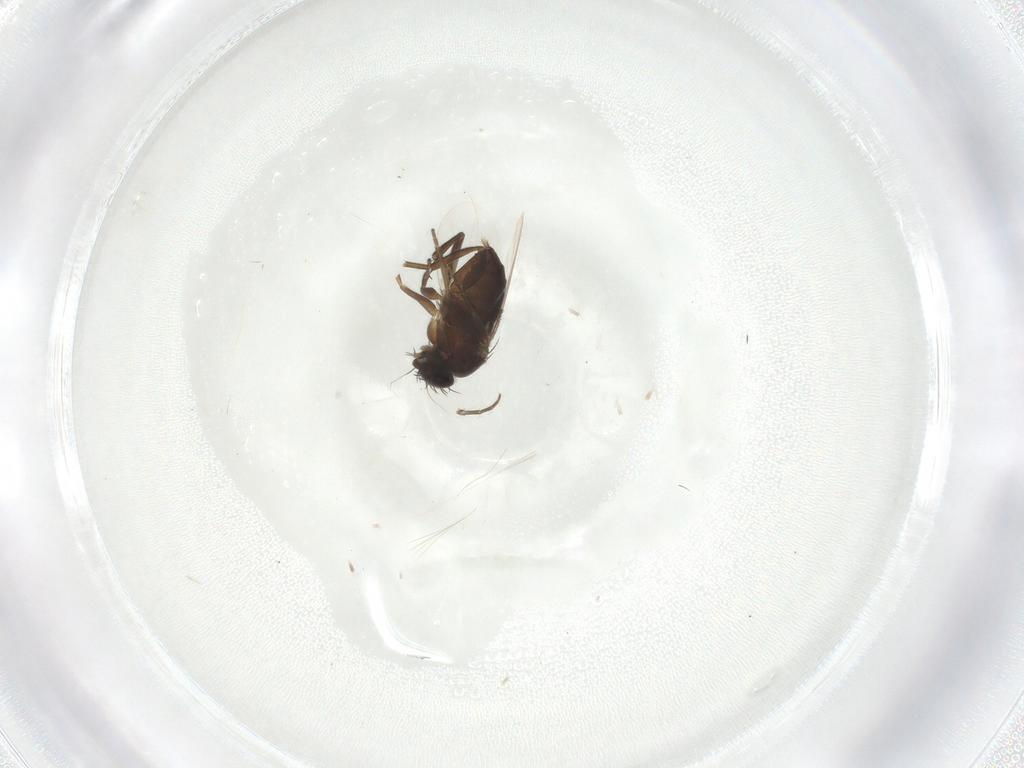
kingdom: Animalia
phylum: Arthropoda
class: Insecta
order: Diptera
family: Phoridae
